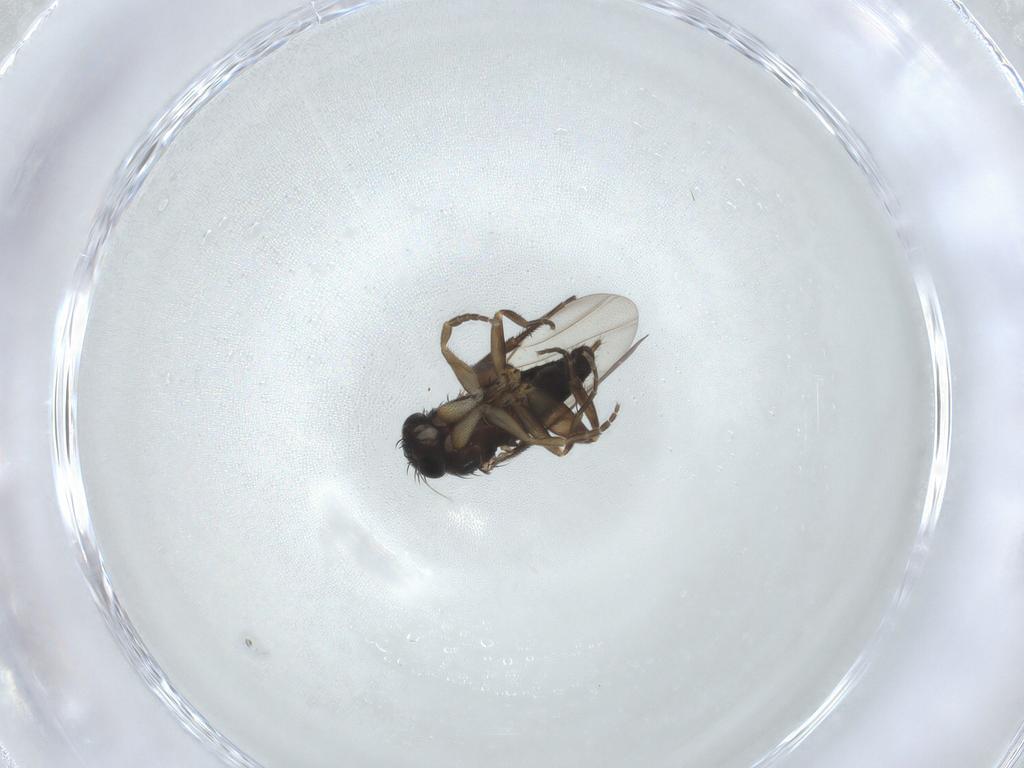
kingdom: Animalia
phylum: Arthropoda
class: Insecta
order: Diptera
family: Phoridae
